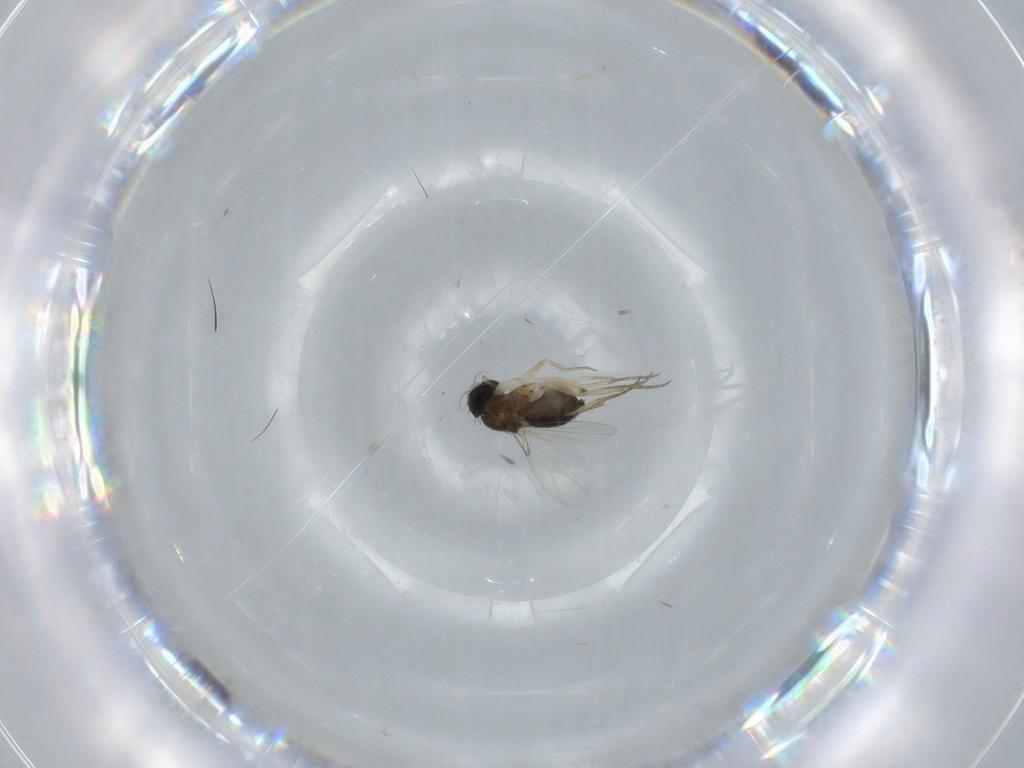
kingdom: Animalia
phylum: Arthropoda
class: Insecta
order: Diptera
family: Phoridae
